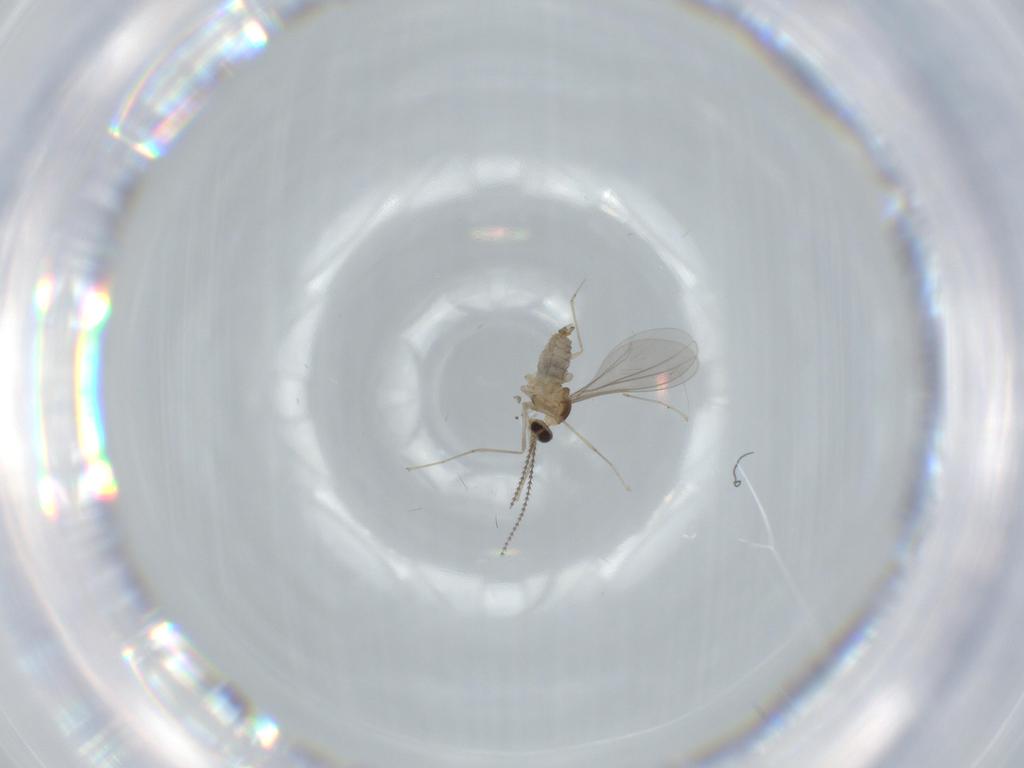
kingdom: Animalia
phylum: Arthropoda
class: Insecta
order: Diptera
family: Cecidomyiidae
